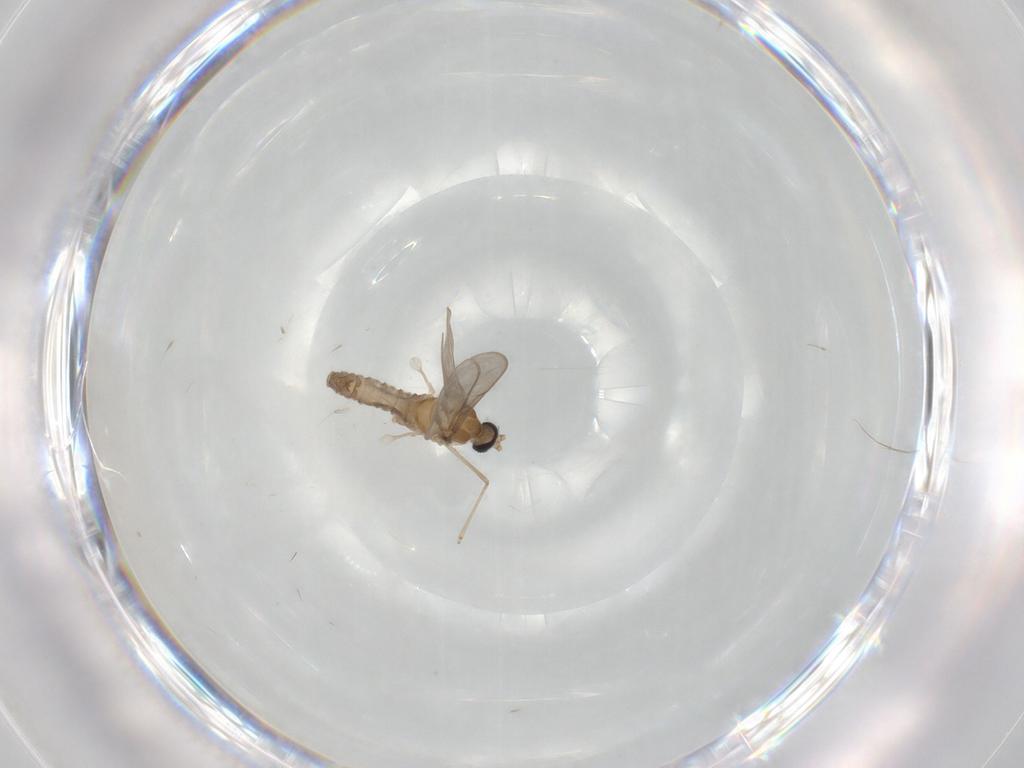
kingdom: Animalia
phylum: Arthropoda
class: Insecta
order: Diptera
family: Cecidomyiidae
